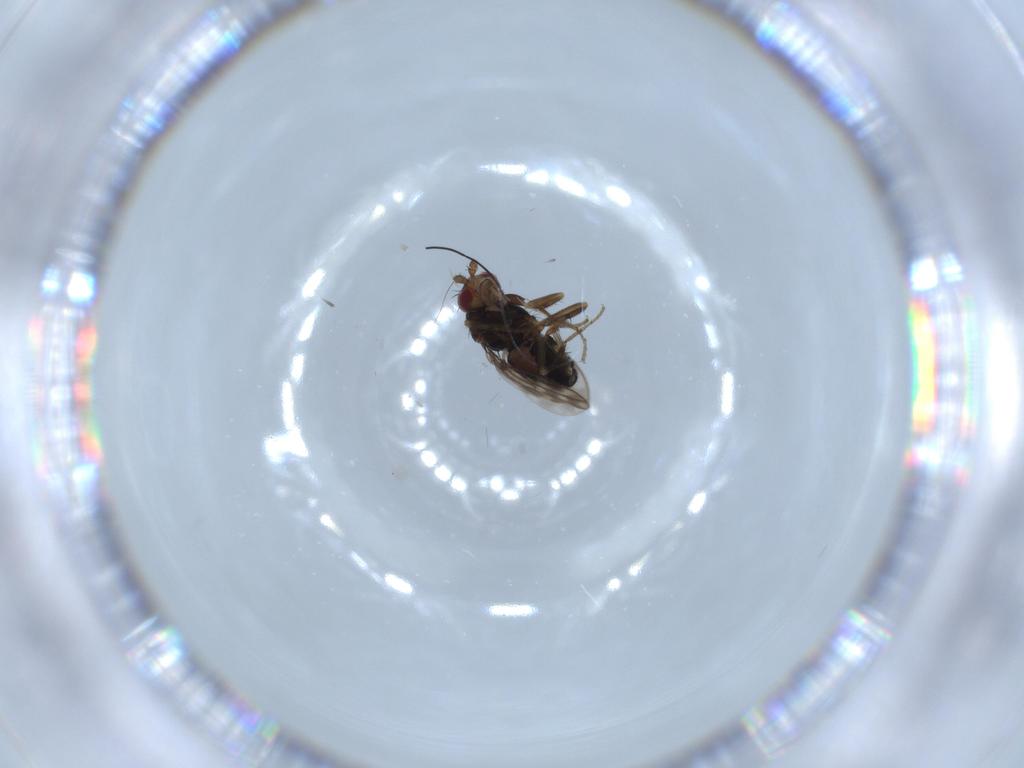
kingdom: Animalia
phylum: Arthropoda
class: Insecta
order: Diptera
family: Sphaeroceridae
